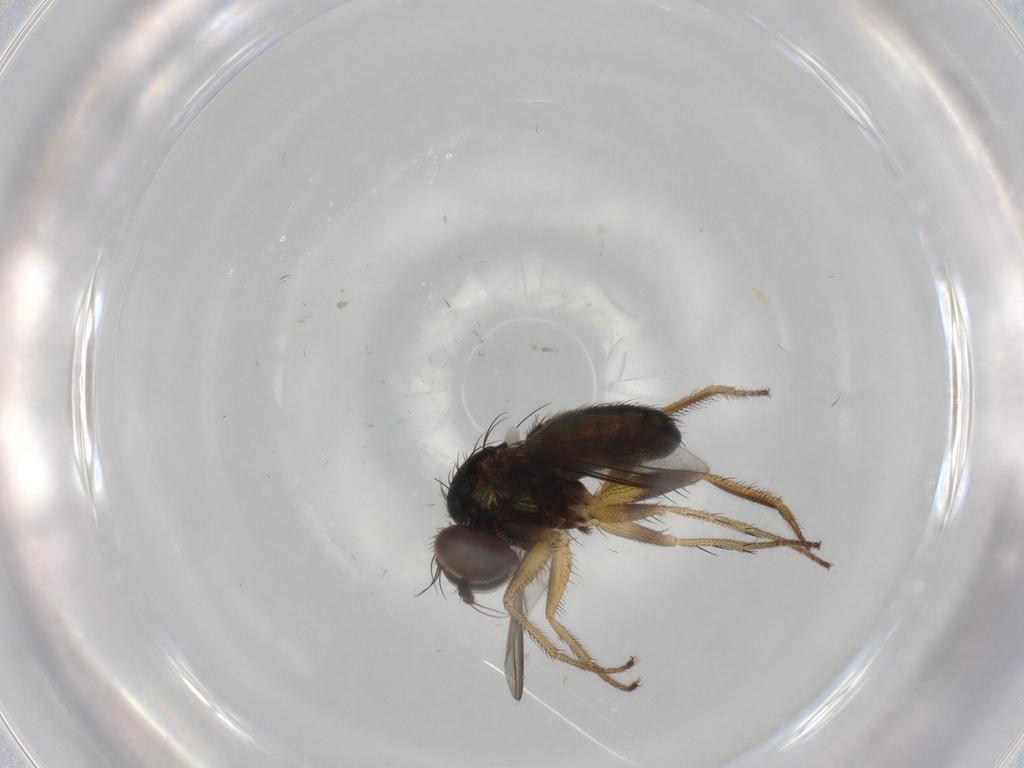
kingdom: Animalia
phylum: Arthropoda
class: Insecta
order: Diptera
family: Dolichopodidae
